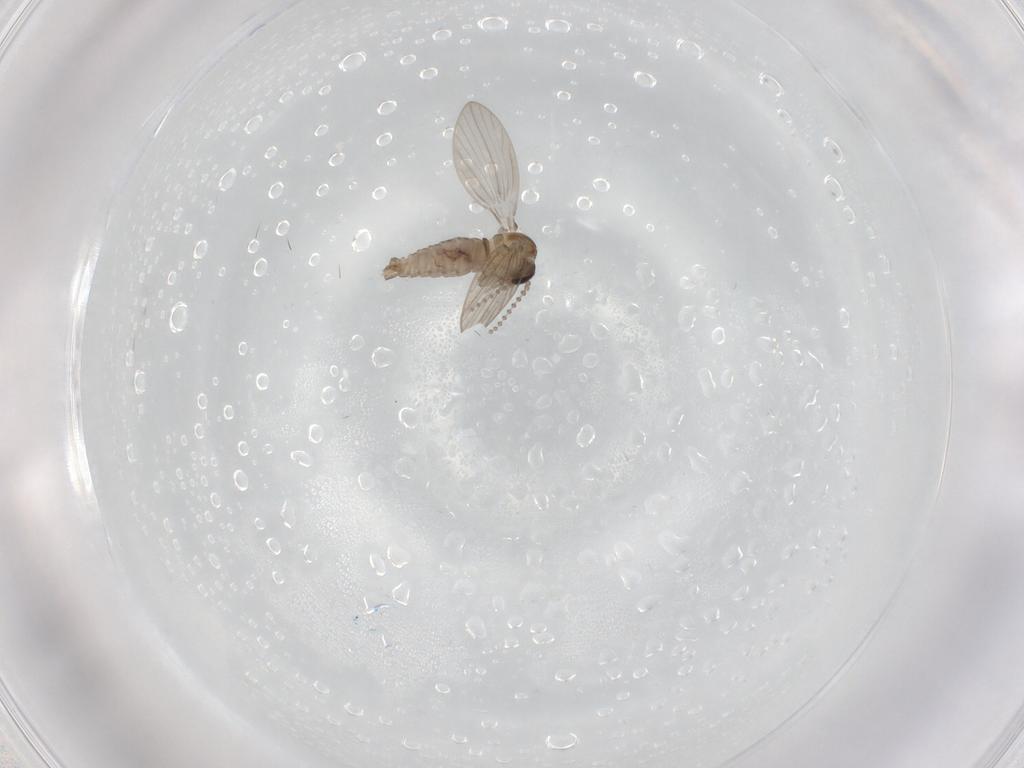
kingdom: Animalia
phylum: Arthropoda
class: Insecta
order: Diptera
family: Psychodidae
